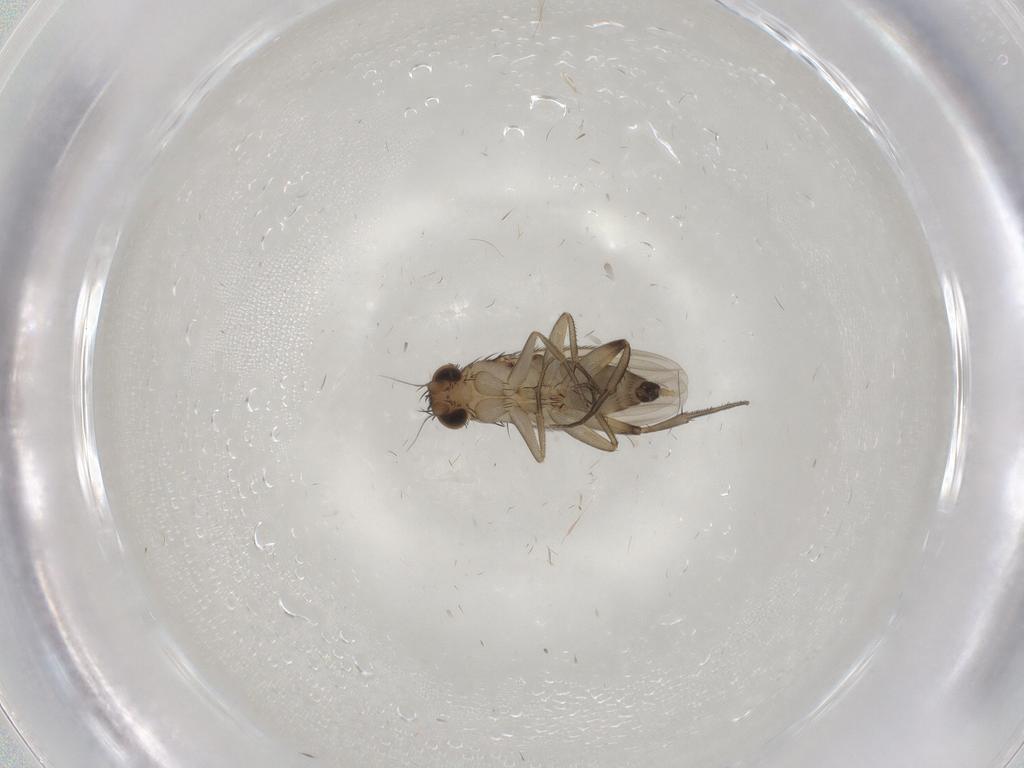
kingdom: Animalia
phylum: Arthropoda
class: Insecta
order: Diptera
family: Phoridae
